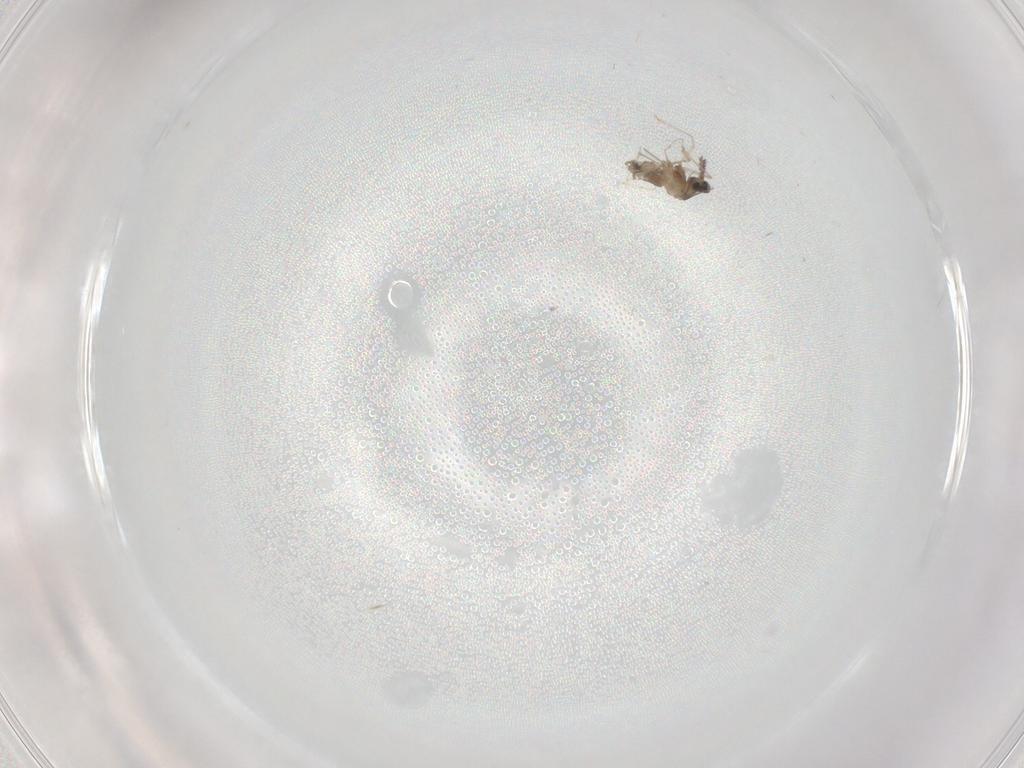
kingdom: Animalia
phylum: Arthropoda
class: Insecta
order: Diptera
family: Cecidomyiidae
